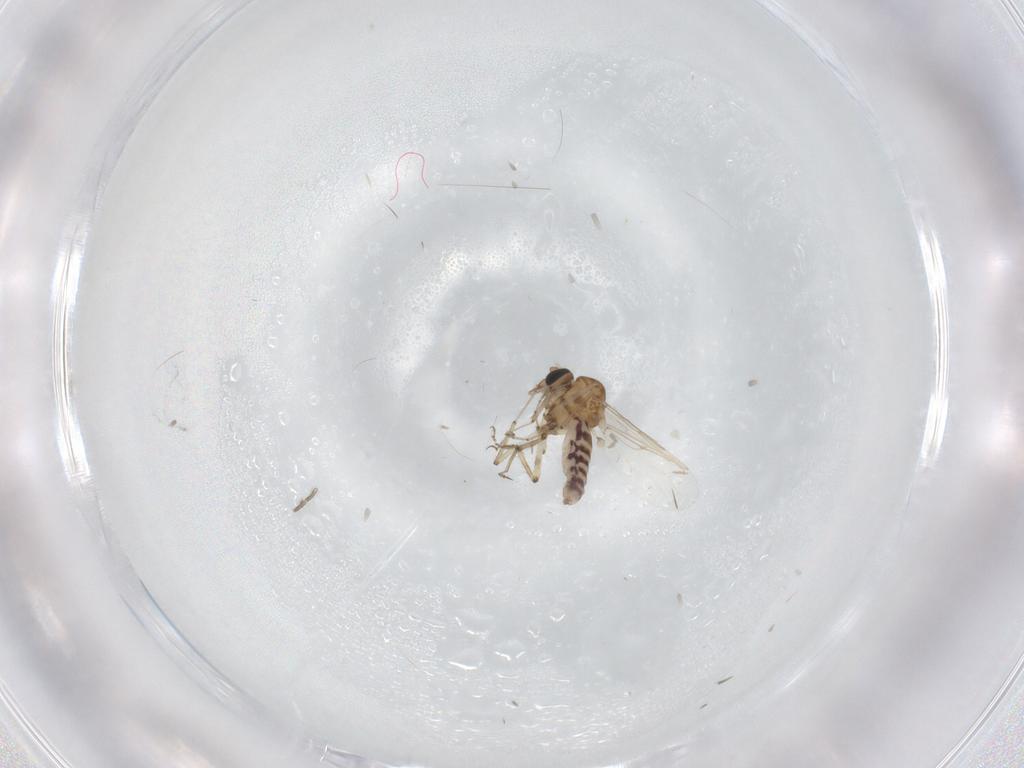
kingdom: Animalia
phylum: Arthropoda
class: Insecta
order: Diptera
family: Ceratopogonidae
